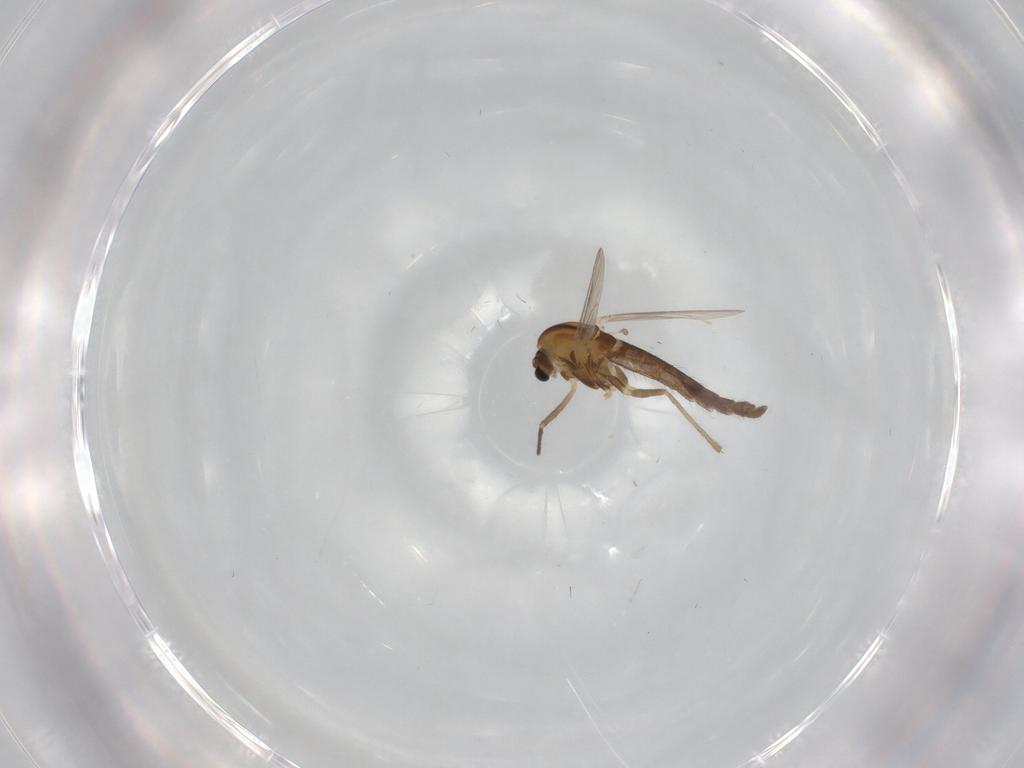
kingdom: Animalia
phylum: Arthropoda
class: Insecta
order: Diptera
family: Chironomidae
